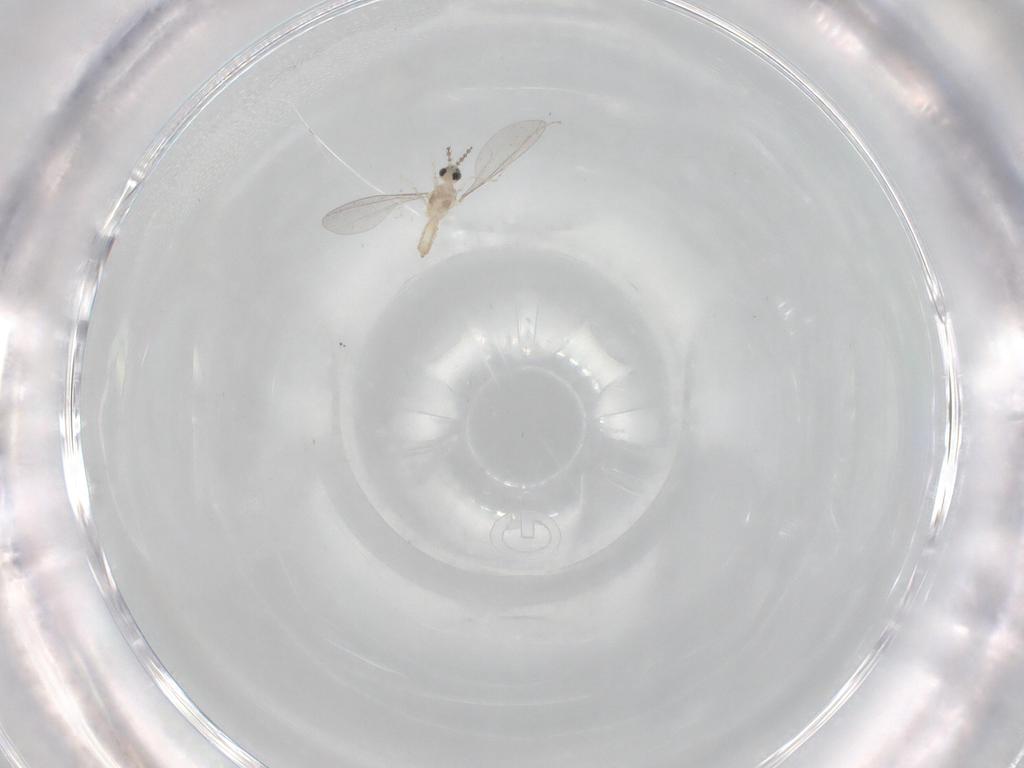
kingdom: Animalia
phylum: Arthropoda
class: Insecta
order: Diptera
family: Cecidomyiidae
